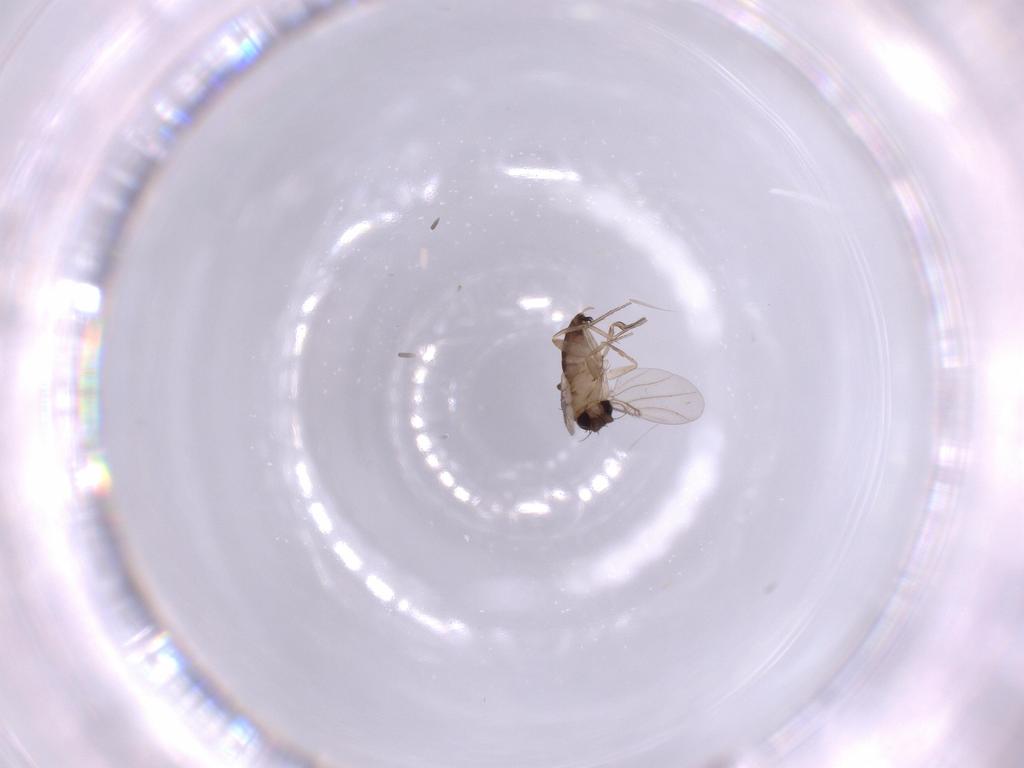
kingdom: Animalia
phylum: Arthropoda
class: Insecta
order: Diptera
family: Phoridae
